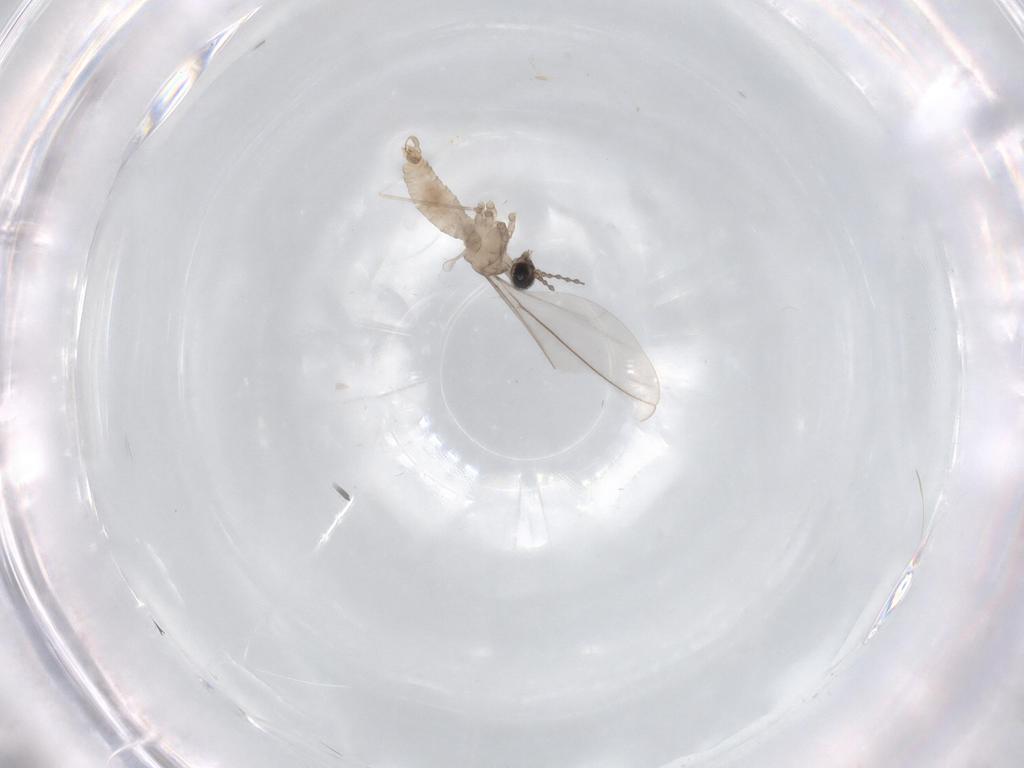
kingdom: Animalia
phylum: Arthropoda
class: Insecta
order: Diptera
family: Cecidomyiidae
